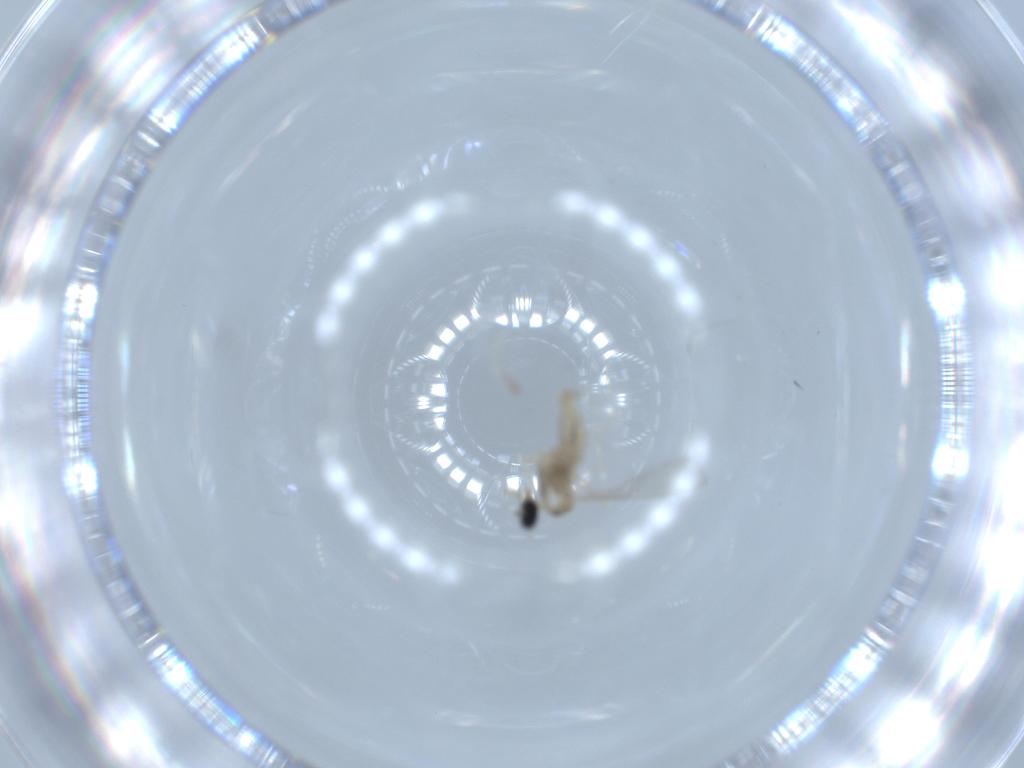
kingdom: Animalia
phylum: Arthropoda
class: Insecta
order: Diptera
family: Cecidomyiidae
